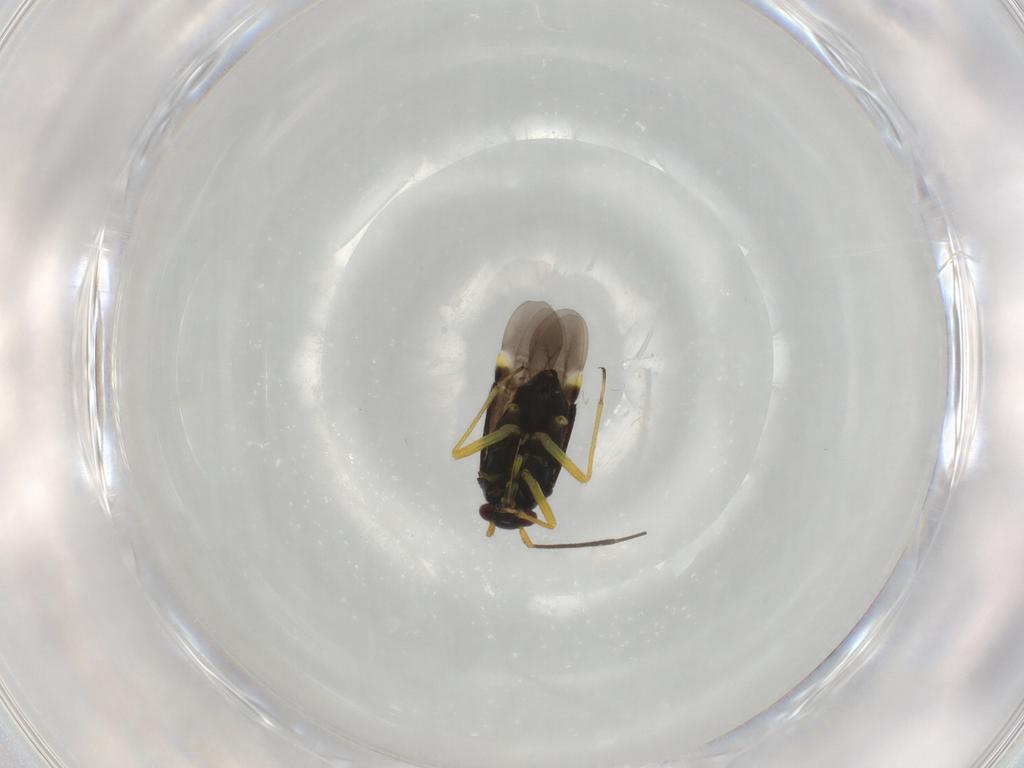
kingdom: Animalia
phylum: Arthropoda
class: Insecta
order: Hemiptera
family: Miridae
